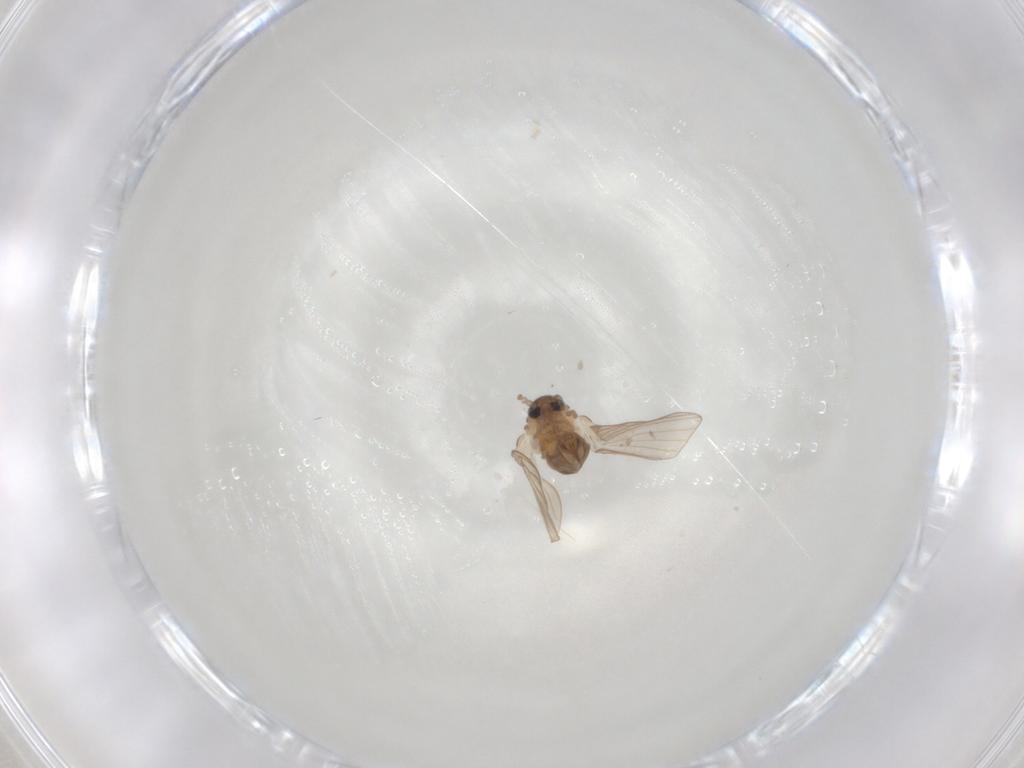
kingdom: Animalia
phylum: Arthropoda
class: Insecta
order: Diptera
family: Psychodidae
